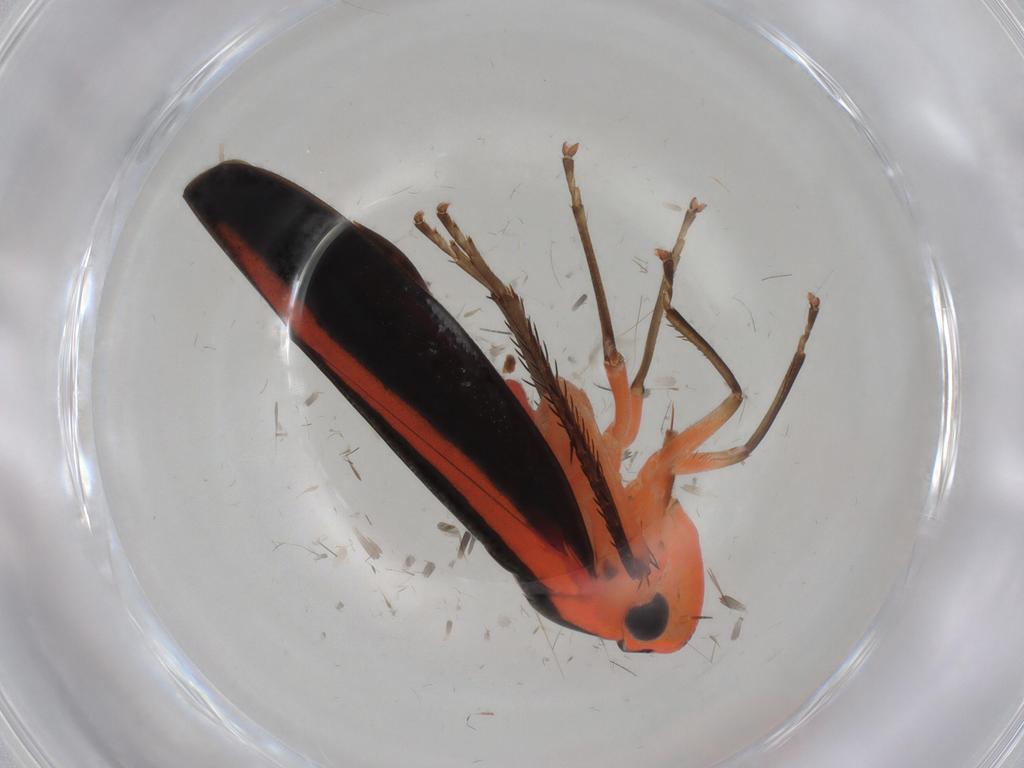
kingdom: Animalia
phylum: Arthropoda
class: Insecta
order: Hemiptera
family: Cicadellidae
